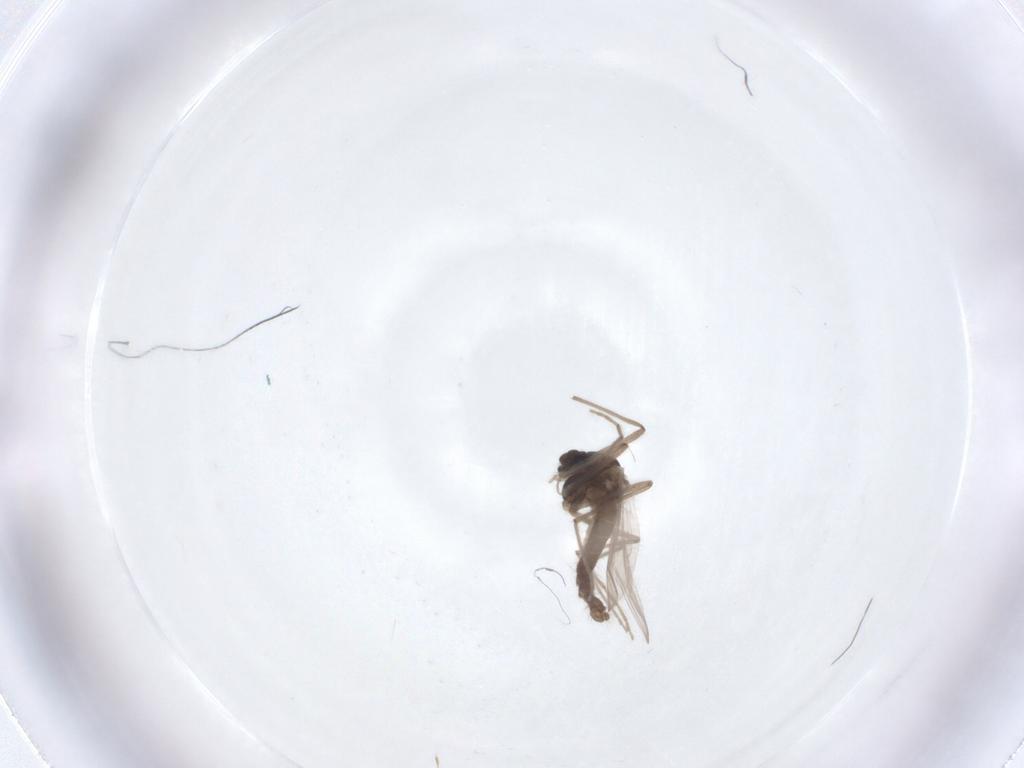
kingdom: Animalia
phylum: Arthropoda
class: Insecta
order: Diptera
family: Chironomidae
